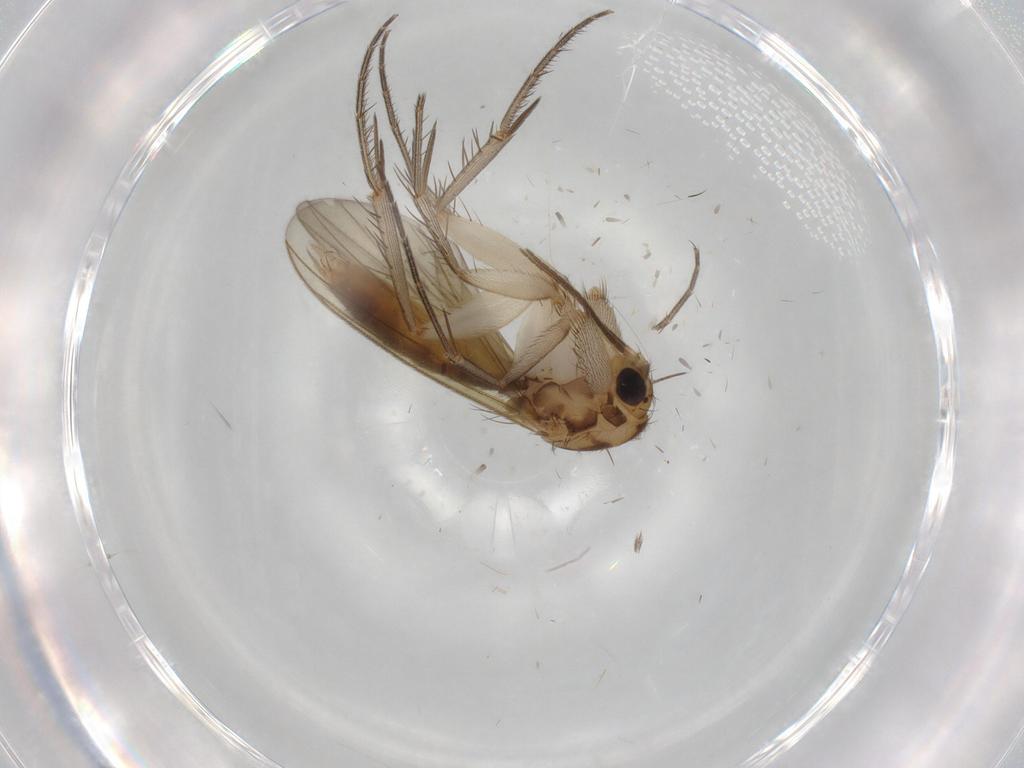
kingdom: Animalia
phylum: Arthropoda
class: Insecta
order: Diptera
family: Mycetophilidae
